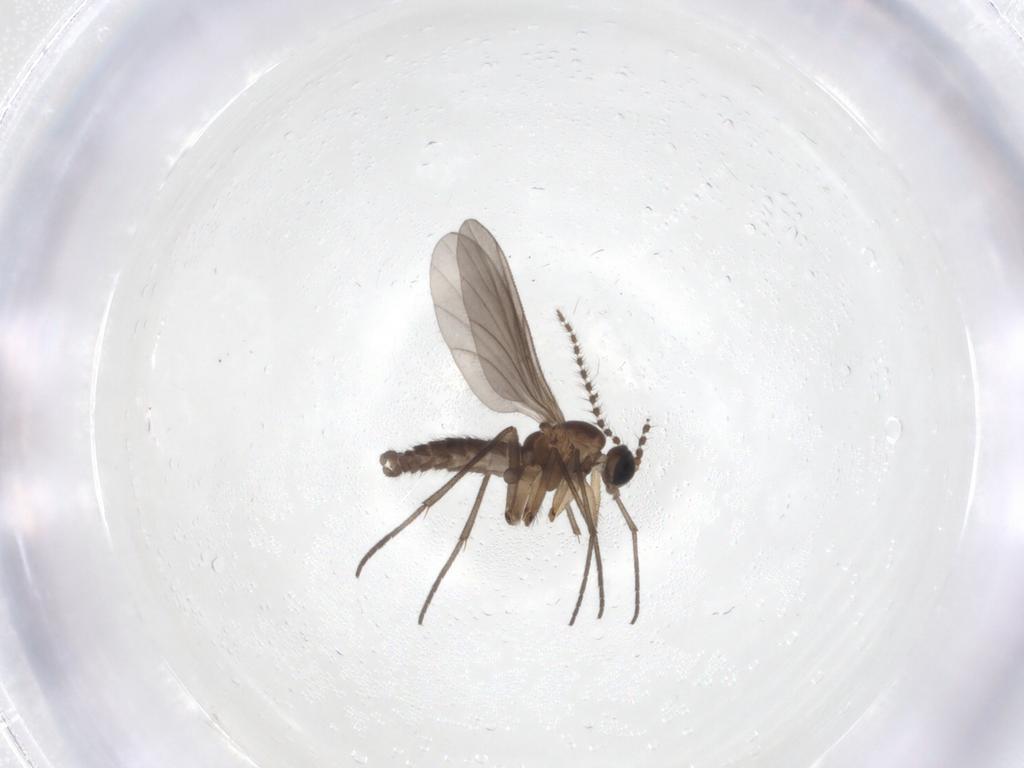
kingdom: Animalia
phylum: Arthropoda
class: Insecta
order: Diptera
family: Sciaridae
